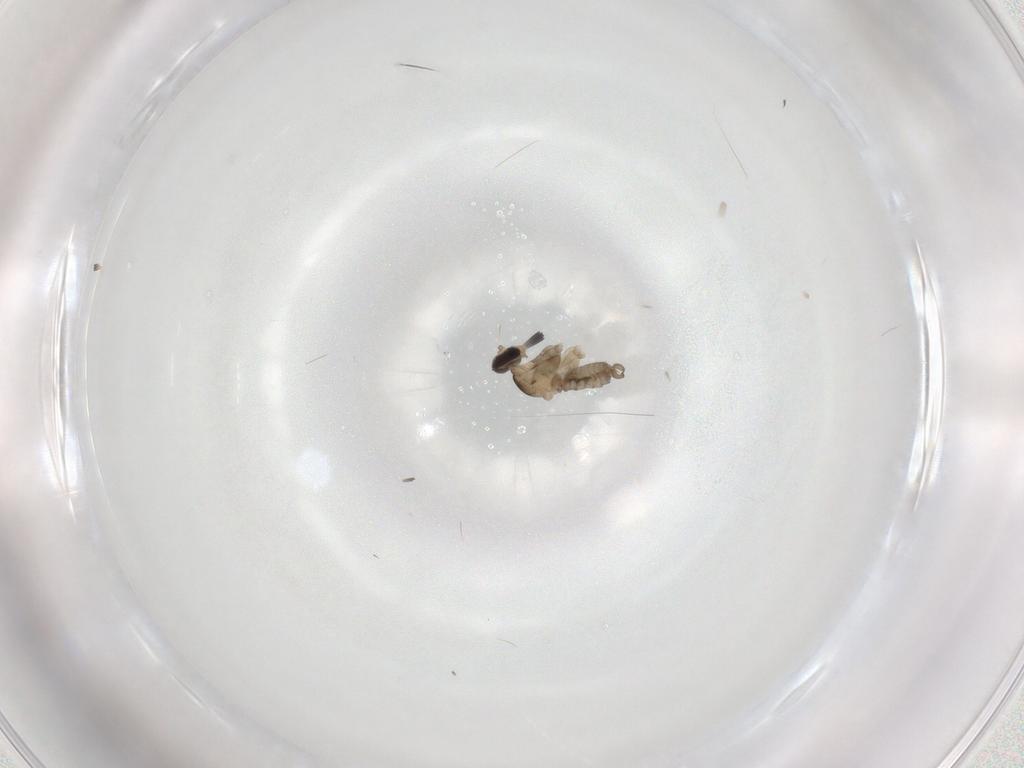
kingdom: Animalia
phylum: Arthropoda
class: Insecta
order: Diptera
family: Cecidomyiidae
